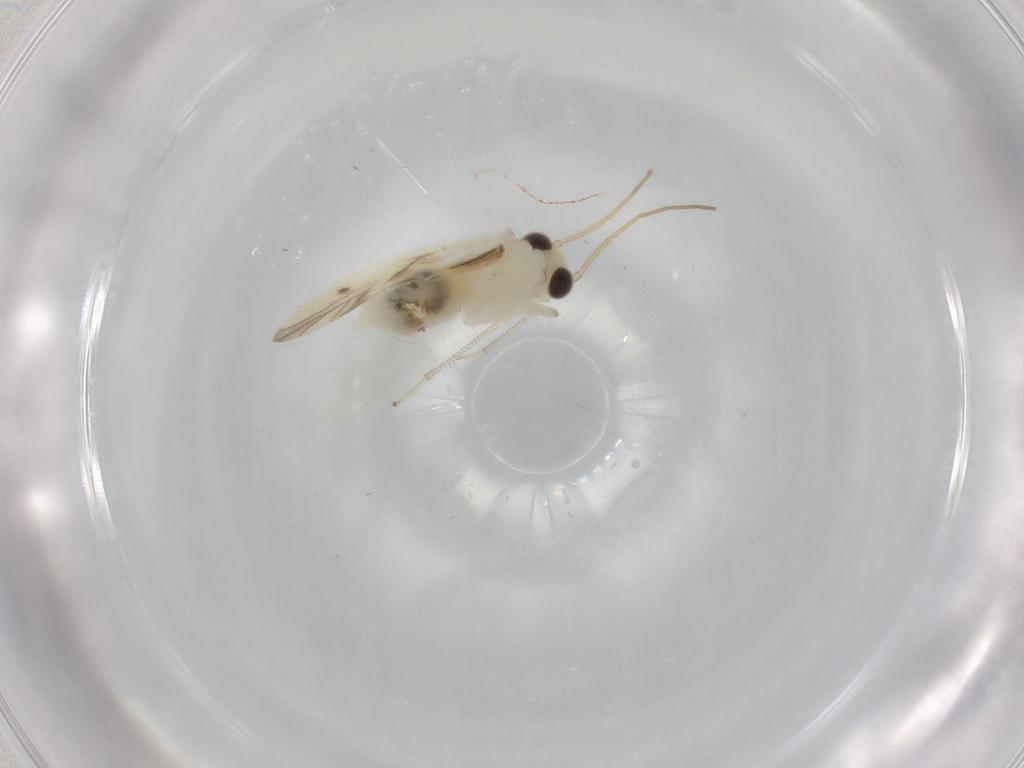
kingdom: Animalia
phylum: Arthropoda
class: Insecta
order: Psocodea
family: Caeciliusidae
